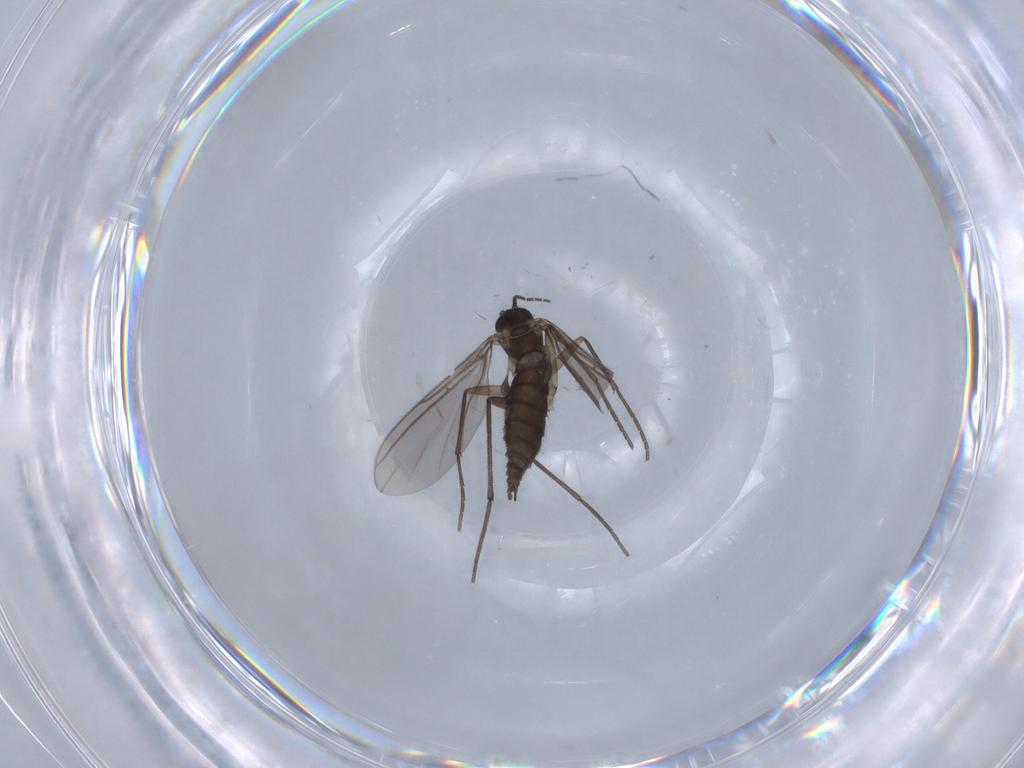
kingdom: Animalia
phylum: Arthropoda
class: Insecta
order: Diptera
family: Sciaridae
